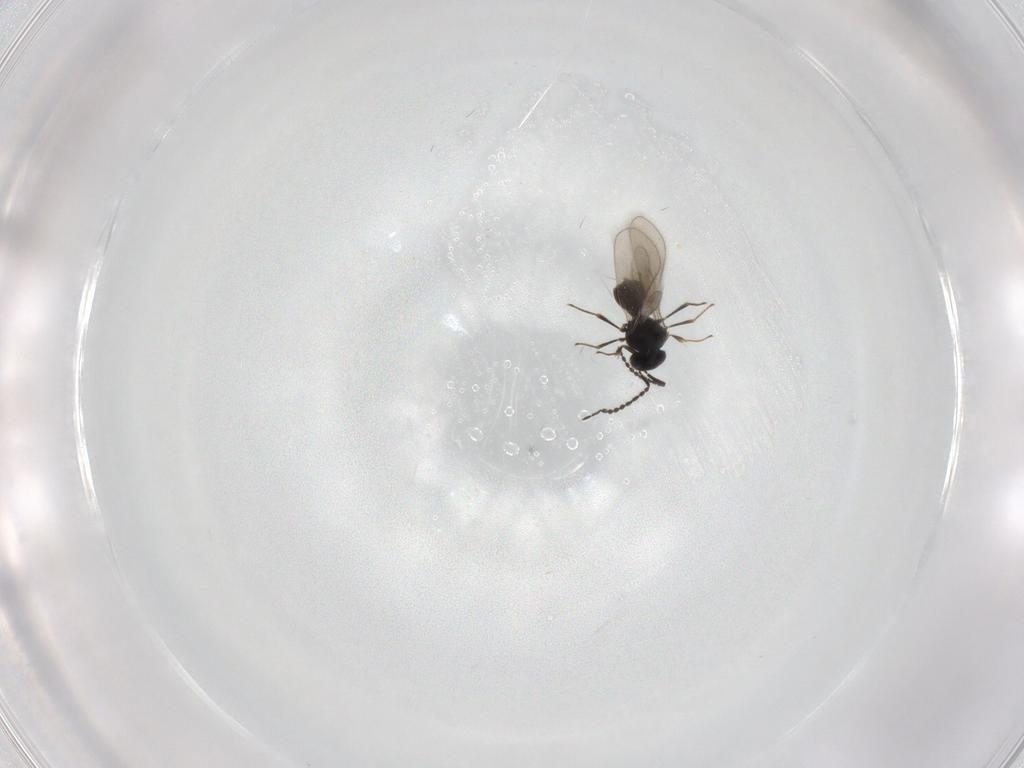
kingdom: Animalia
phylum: Arthropoda
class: Insecta
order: Hymenoptera
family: Scelionidae
